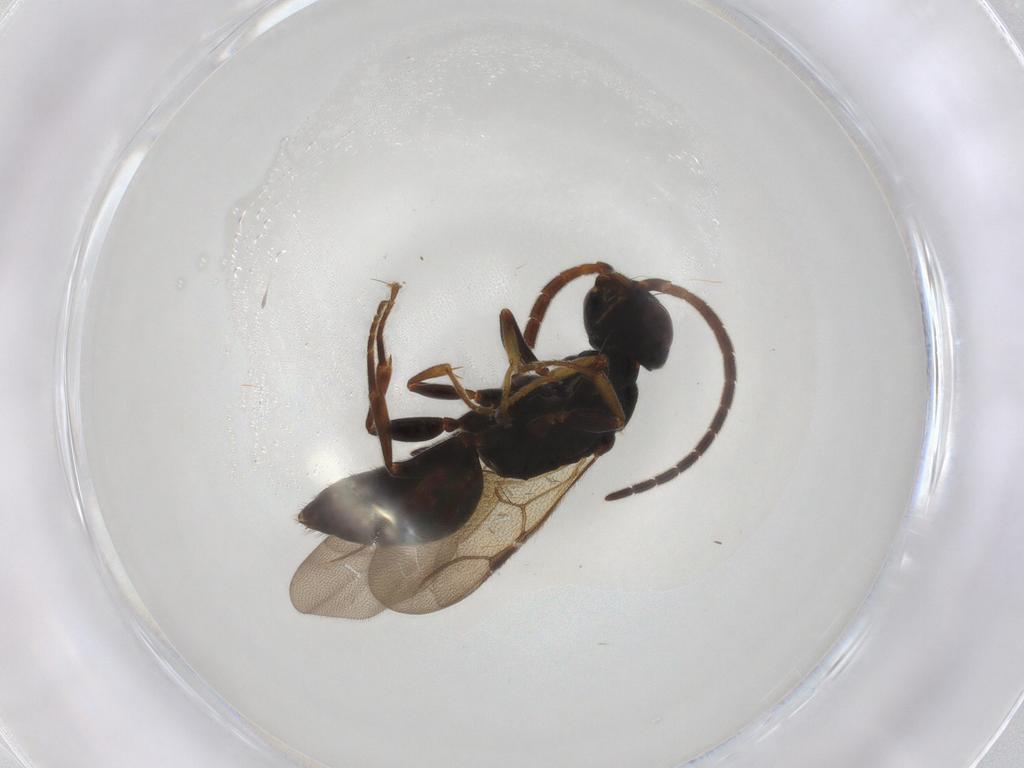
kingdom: Animalia
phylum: Arthropoda
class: Insecta
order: Hymenoptera
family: Bethylidae
